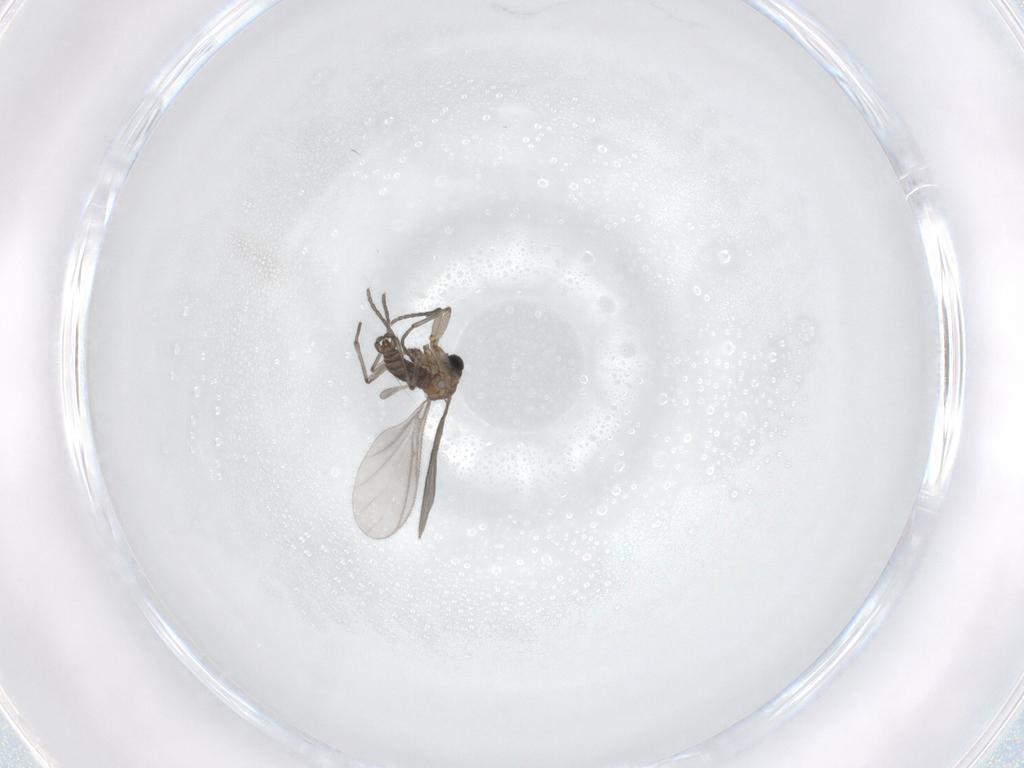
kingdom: Animalia
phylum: Arthropoda
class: Insecta
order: Diptera
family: Sciaridae
